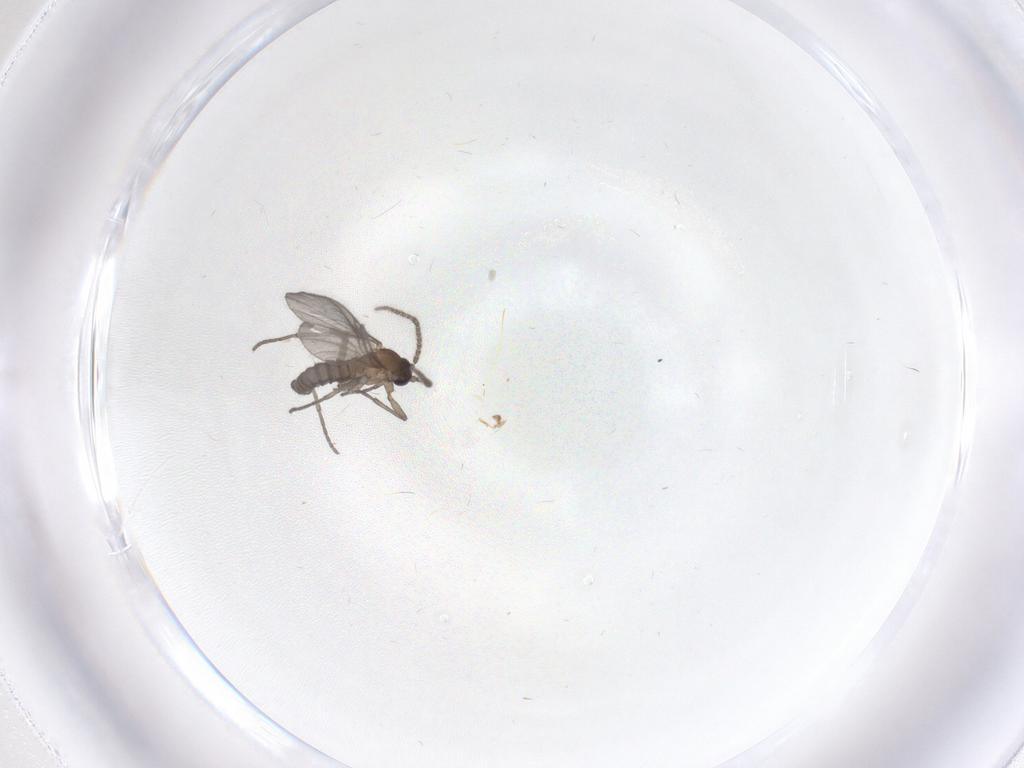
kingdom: Animalia
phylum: Arthropoda
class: Insecta
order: Diptera
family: Sciaridae
